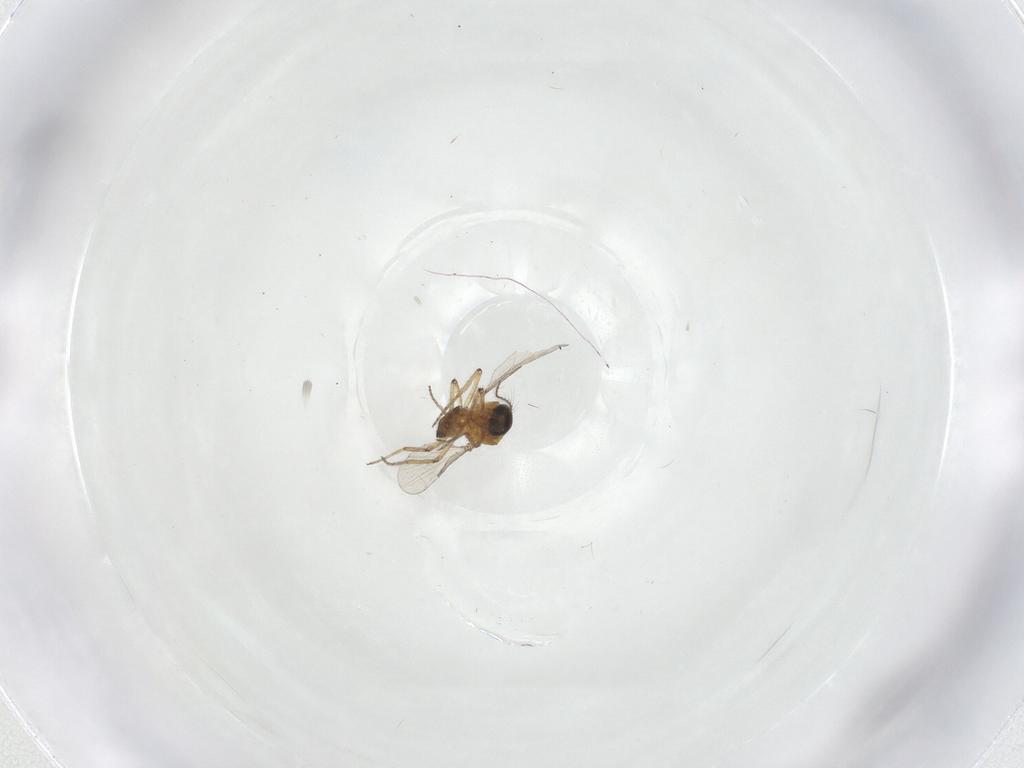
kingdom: Animalia
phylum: Arthropoda
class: Insecta
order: Diptera
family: Ceratopogonidae
